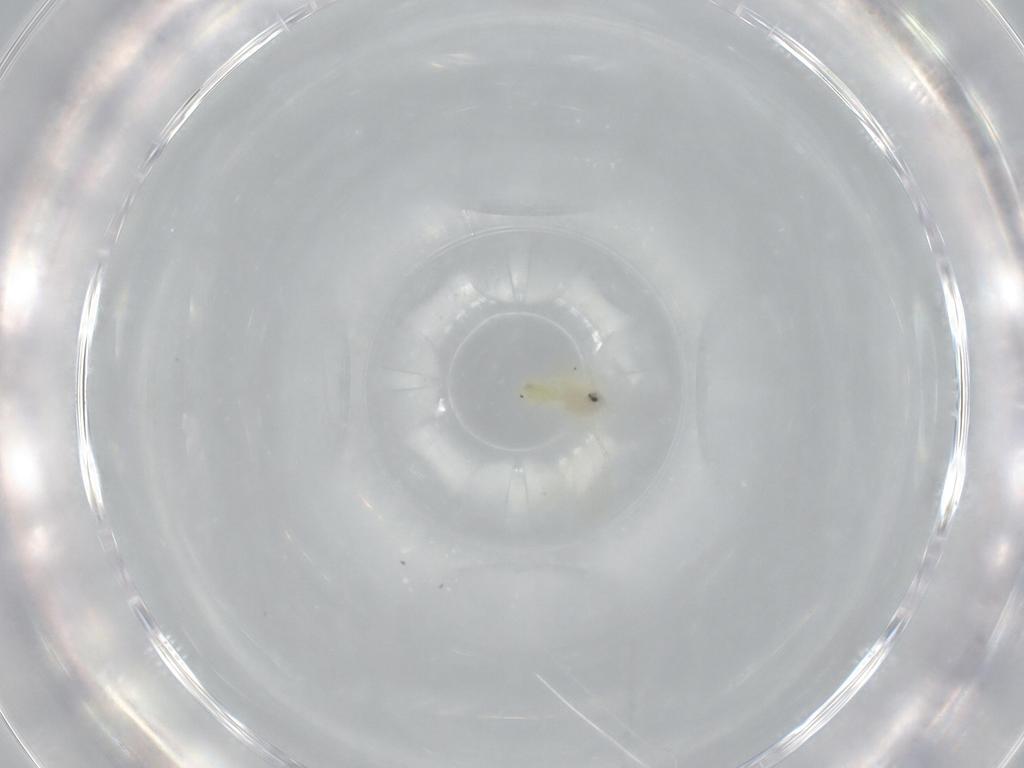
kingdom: Animalia
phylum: Arthropoda
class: Insecta
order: Hemiptera
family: Aleyrodidae
